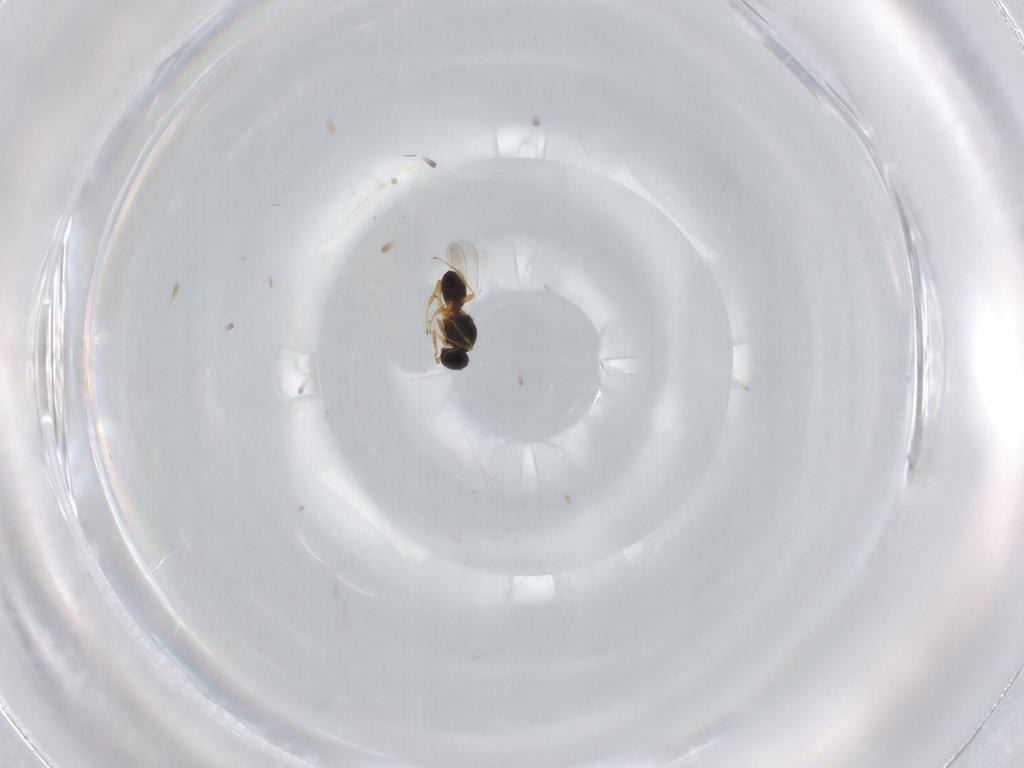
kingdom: Animalia
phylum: Arthropoda
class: Insecta
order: Hymenoptera
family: Platygastridae
